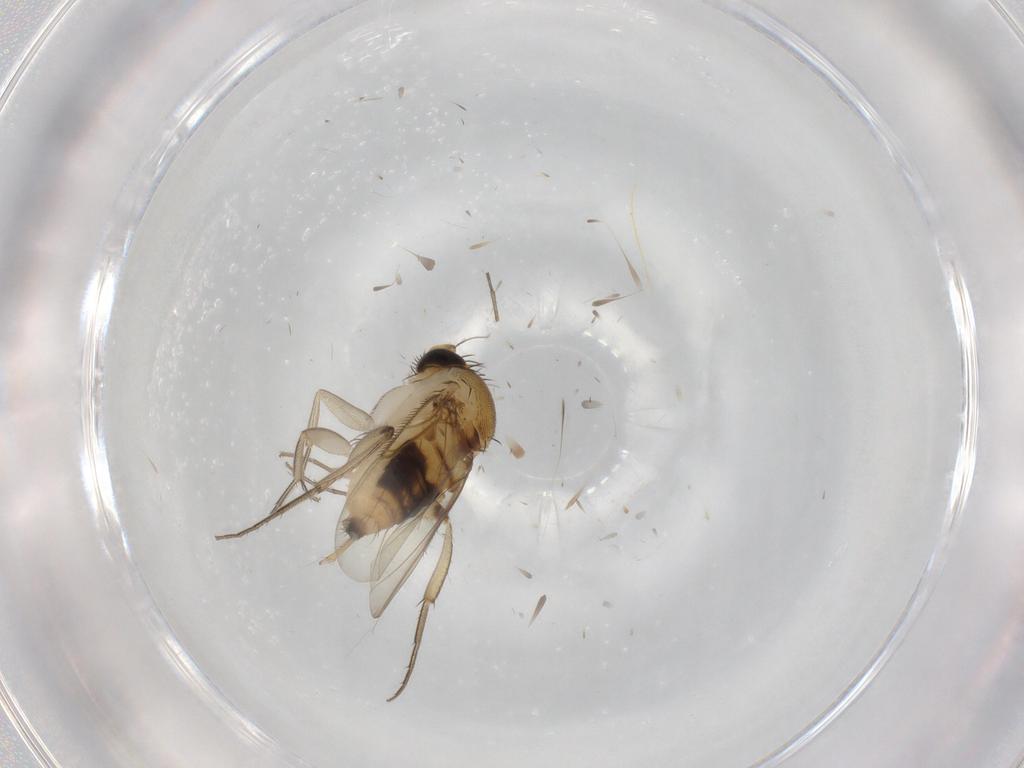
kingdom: Animalia
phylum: Arthropoda
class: Insecta
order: Diptera
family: Phoridae
